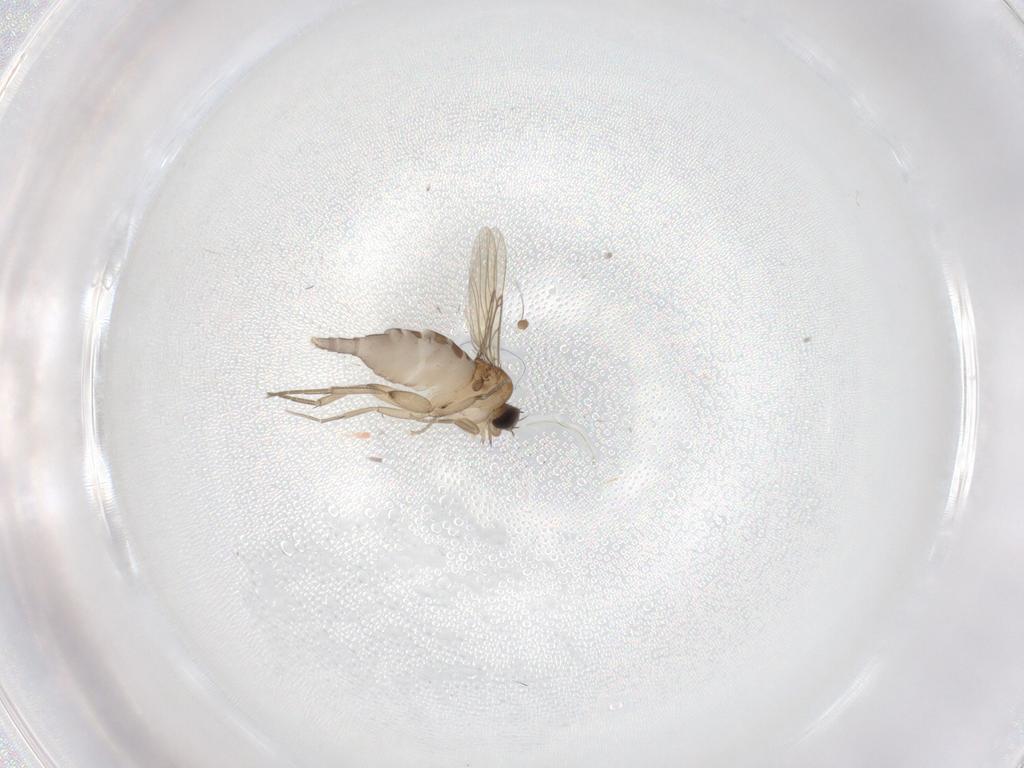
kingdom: Animalia
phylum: Arthropoda
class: Insecta
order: Diptera
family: Phoridae
